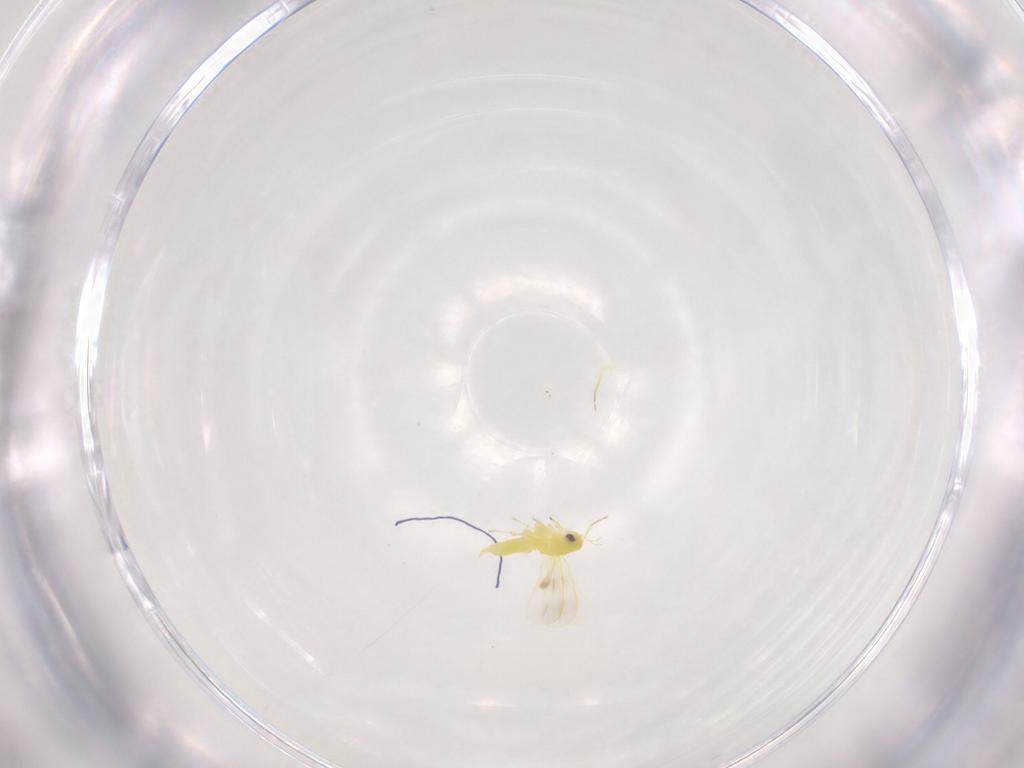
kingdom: Animalia
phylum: Arthropoda
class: Insecta
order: Hemiptera
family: Aleyrodidae
